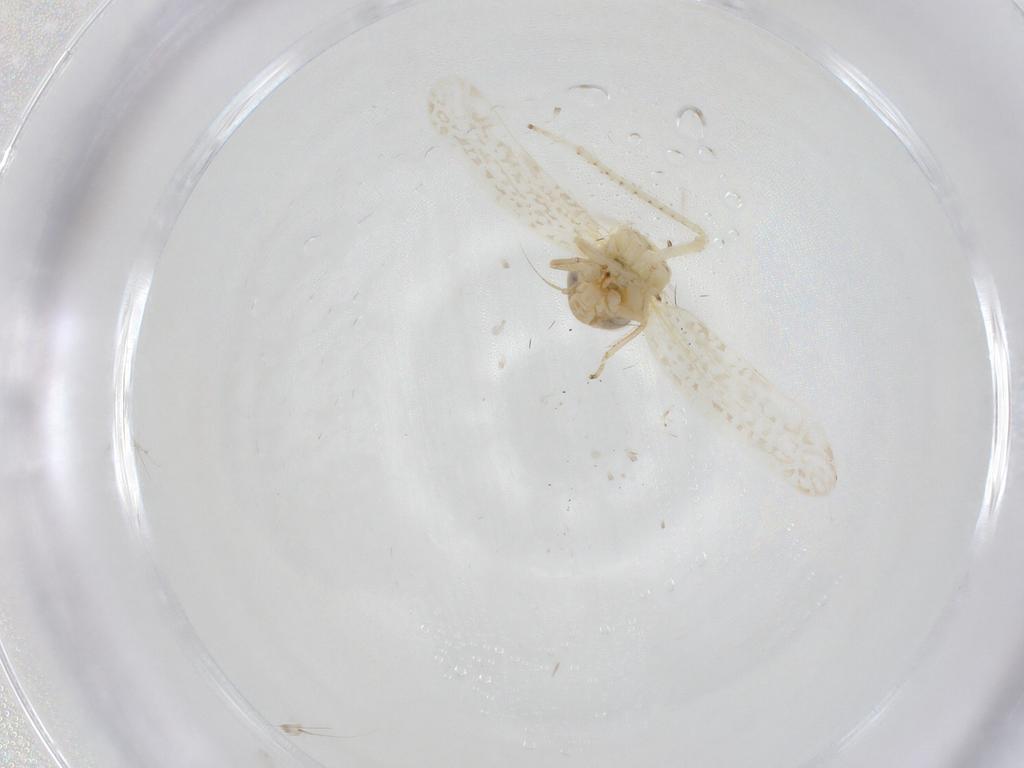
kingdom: Animalia
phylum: Arthropoda
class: Insecta
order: Hemiptera
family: Cicadellidae
